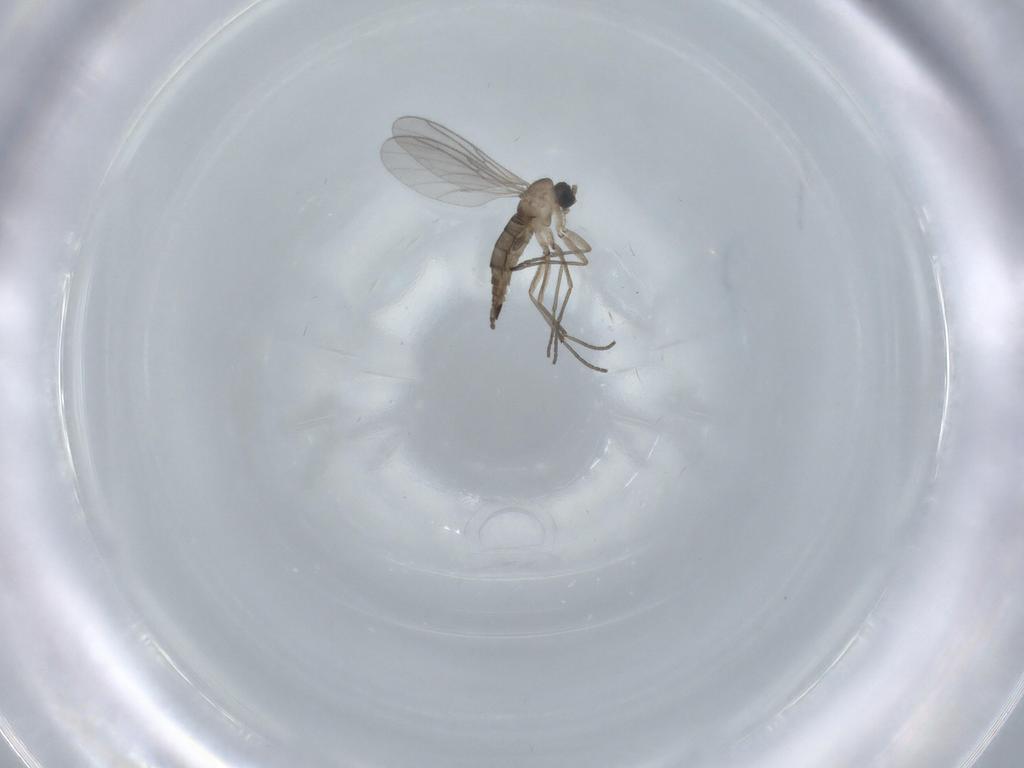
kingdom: Animalia
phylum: Arthropoda
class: Insecta
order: Diptera
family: Sciaridae
